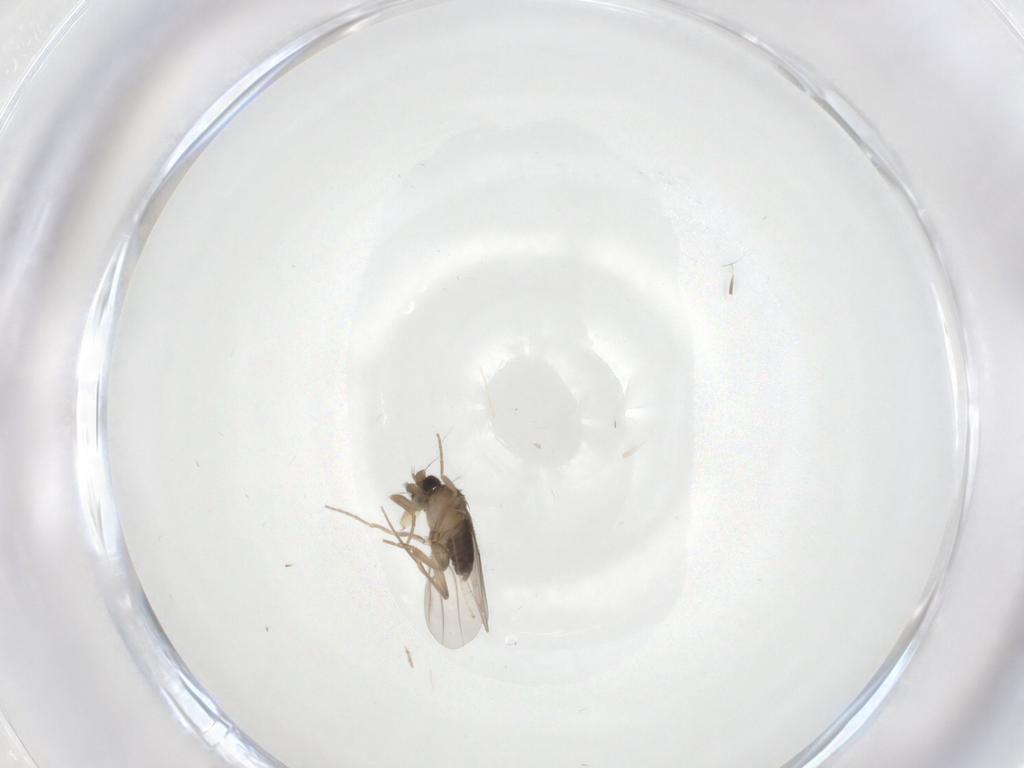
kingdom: Animalia
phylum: Arthropoda
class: Insecta
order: Diptera
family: Phoridae
